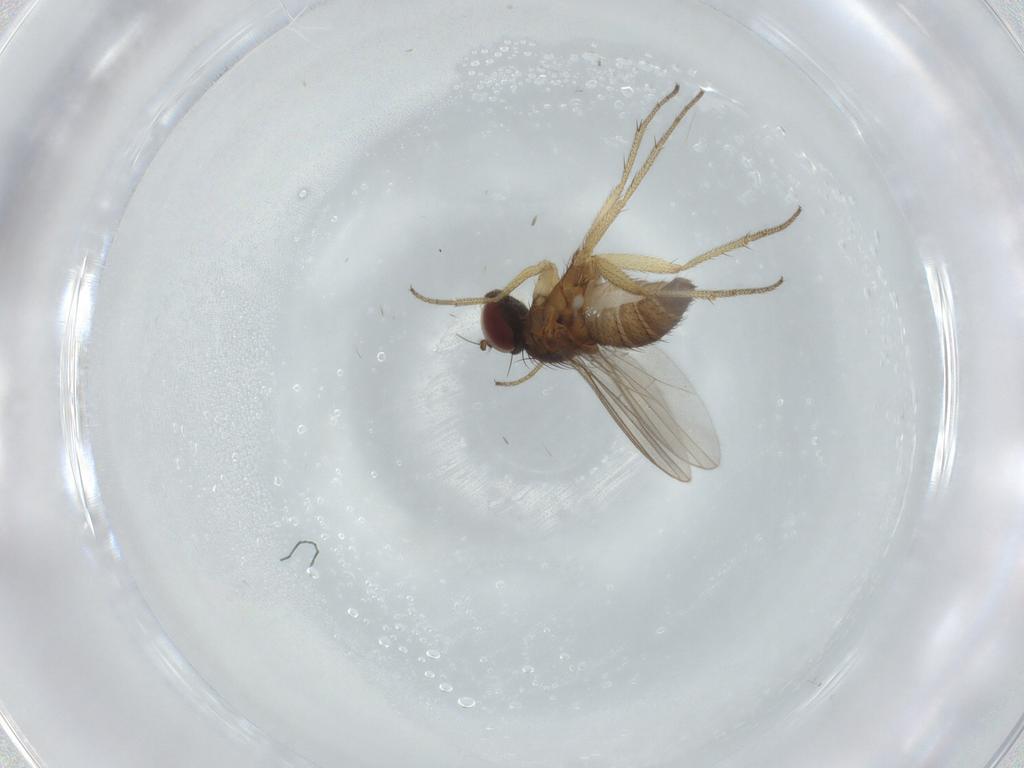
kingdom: Animalia
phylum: Arthropoda
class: Insecta
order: Diptera
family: Dolichopodidae
